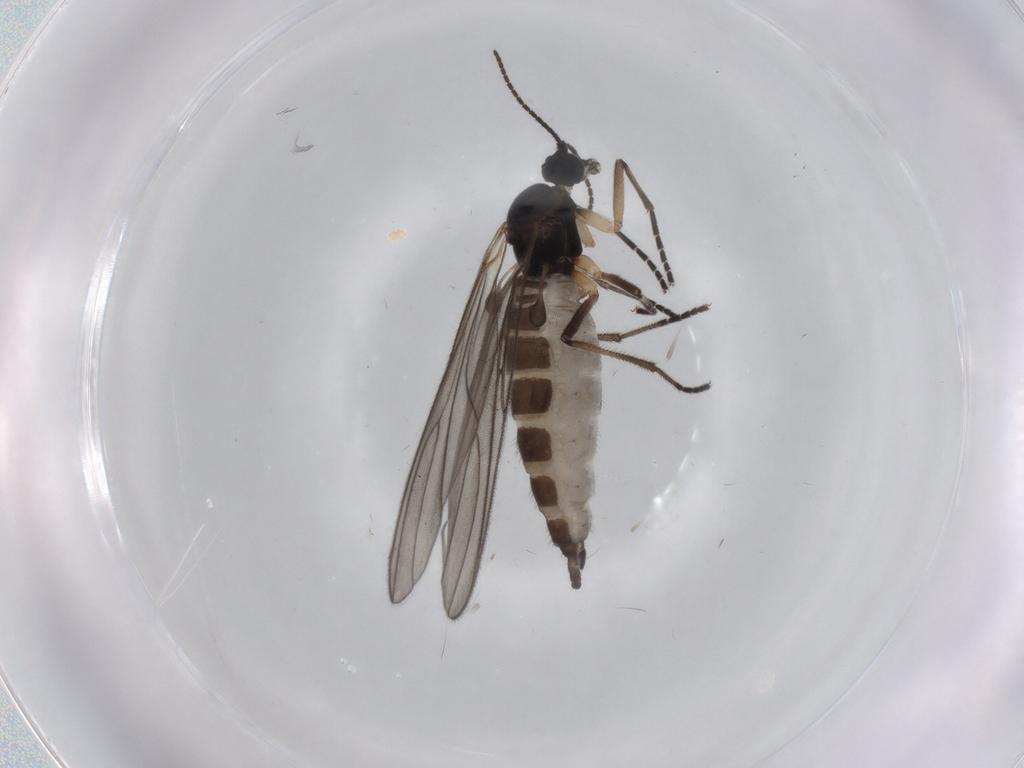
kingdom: Animalia
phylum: Arthropoda
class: Insecta
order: Diptera
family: Sciaridae
